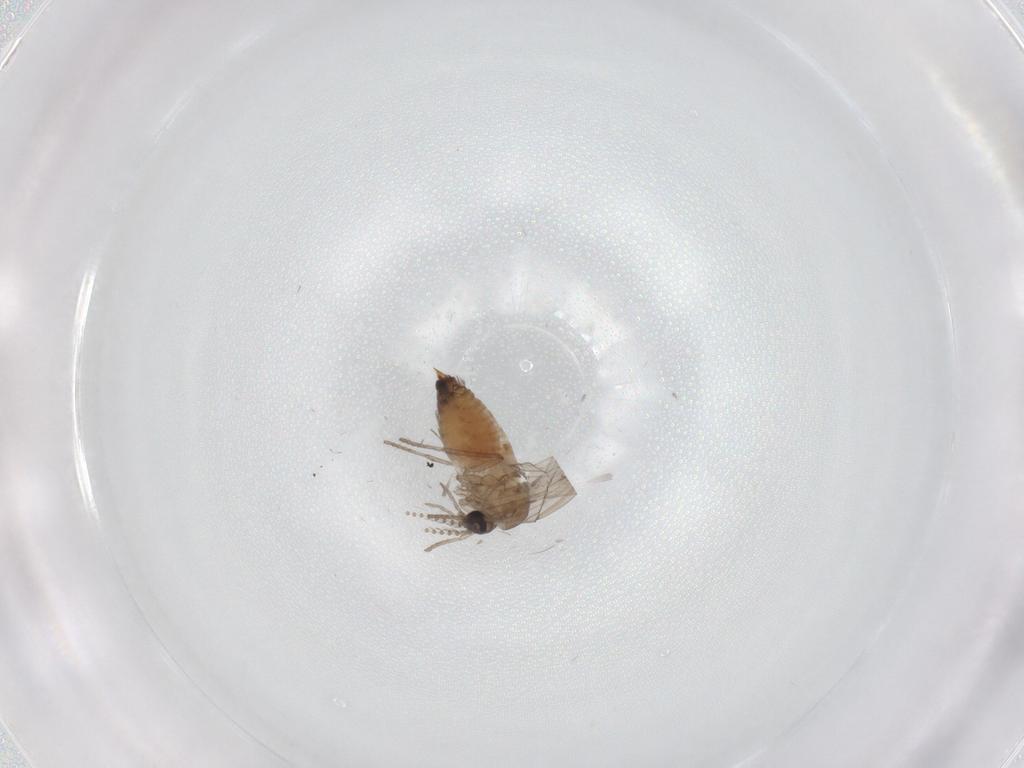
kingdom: Animalia
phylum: Arthropoda
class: Insecta
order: Diptera
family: Psychodidae
